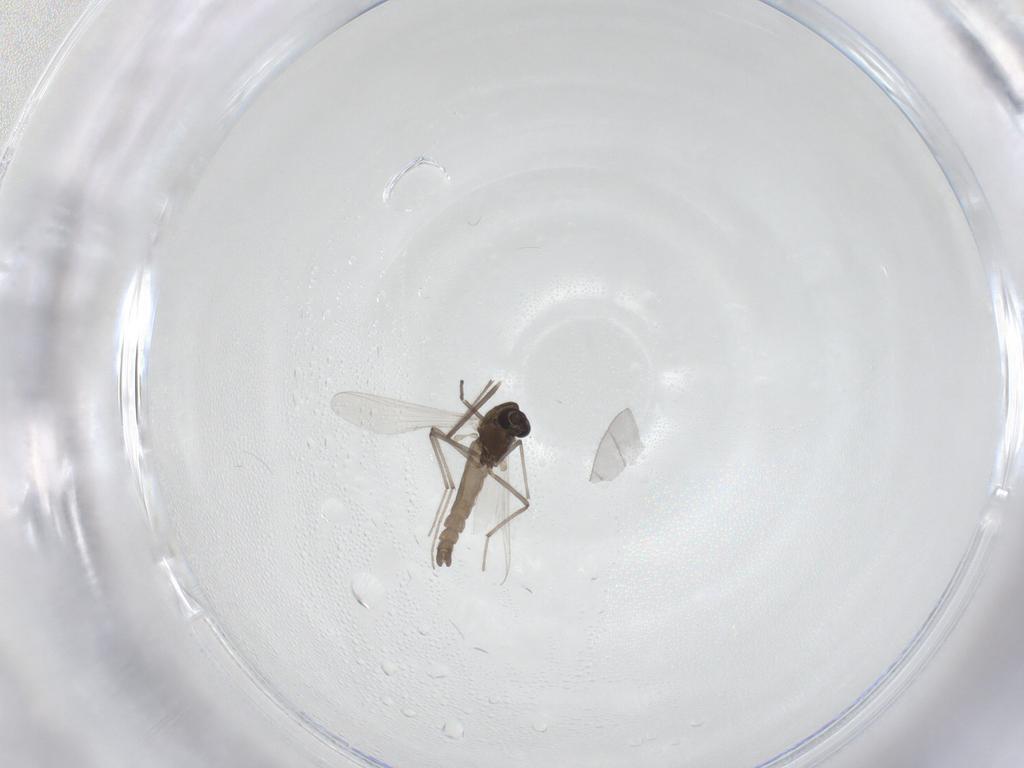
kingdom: Animalia
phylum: Arthropoda
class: Insecta
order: Diptera
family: Chironomidae
